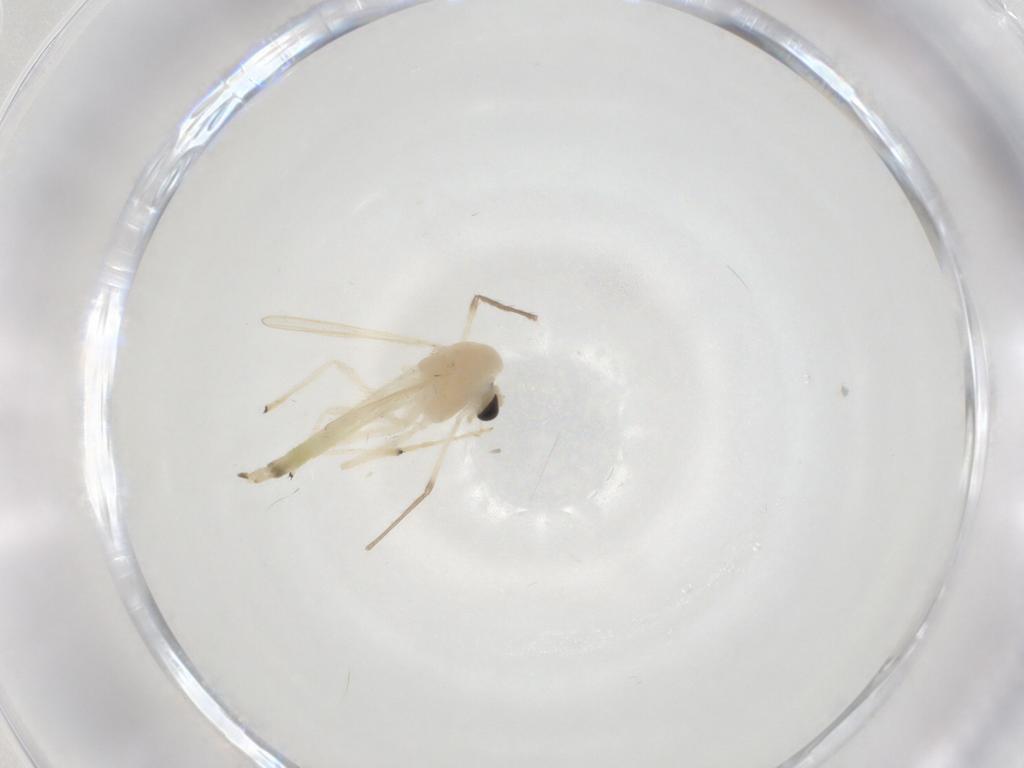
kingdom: Animalia
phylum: Arthropoda
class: Insecta
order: Diptera
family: Chironomidae
